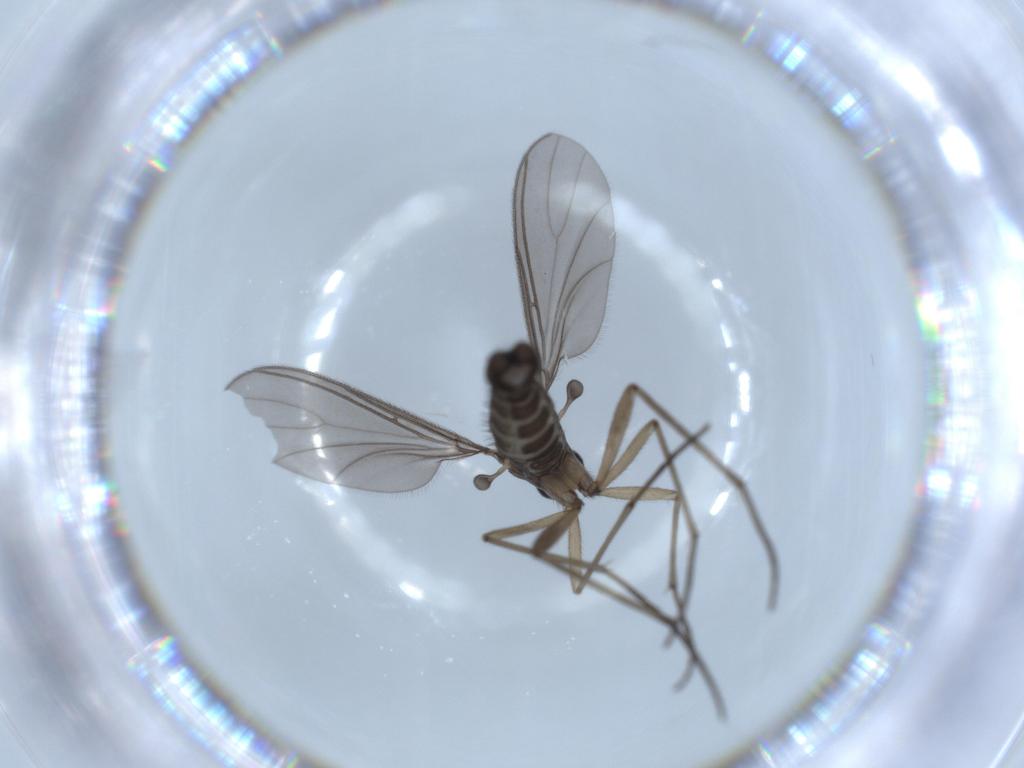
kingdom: Animalia
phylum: Arthropoda
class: Insecta
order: Diptera
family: Sciaridae
